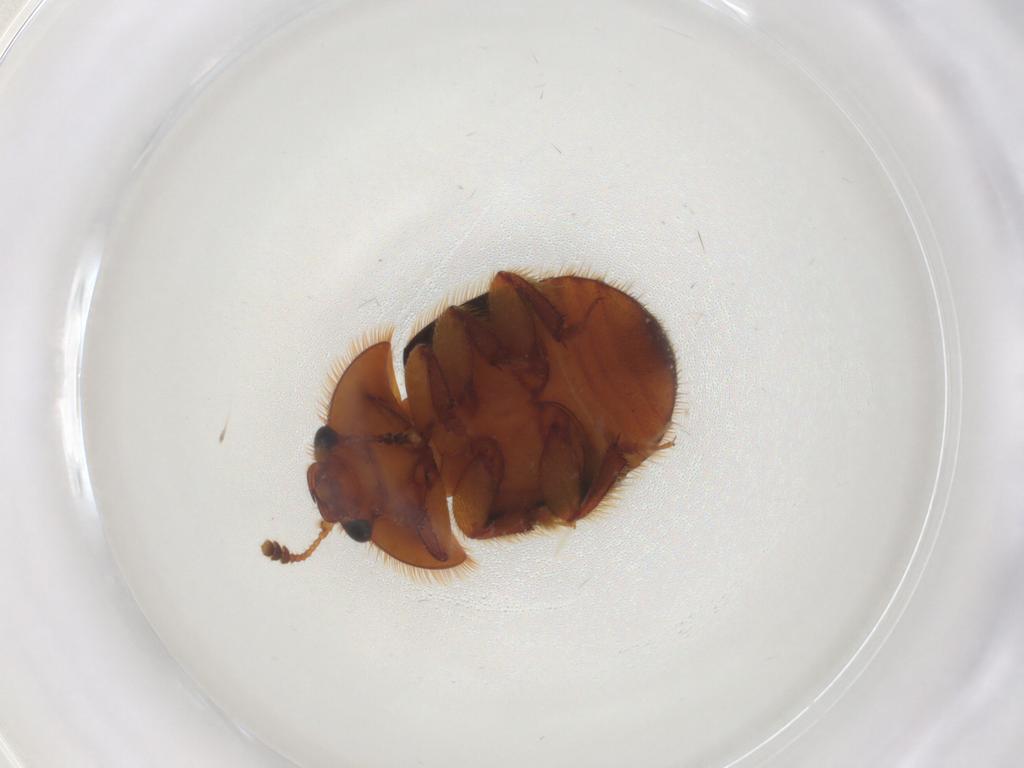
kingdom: Animalia
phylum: Arthropoda
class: Insecta
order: Coleoptera
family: Nitidulidae
